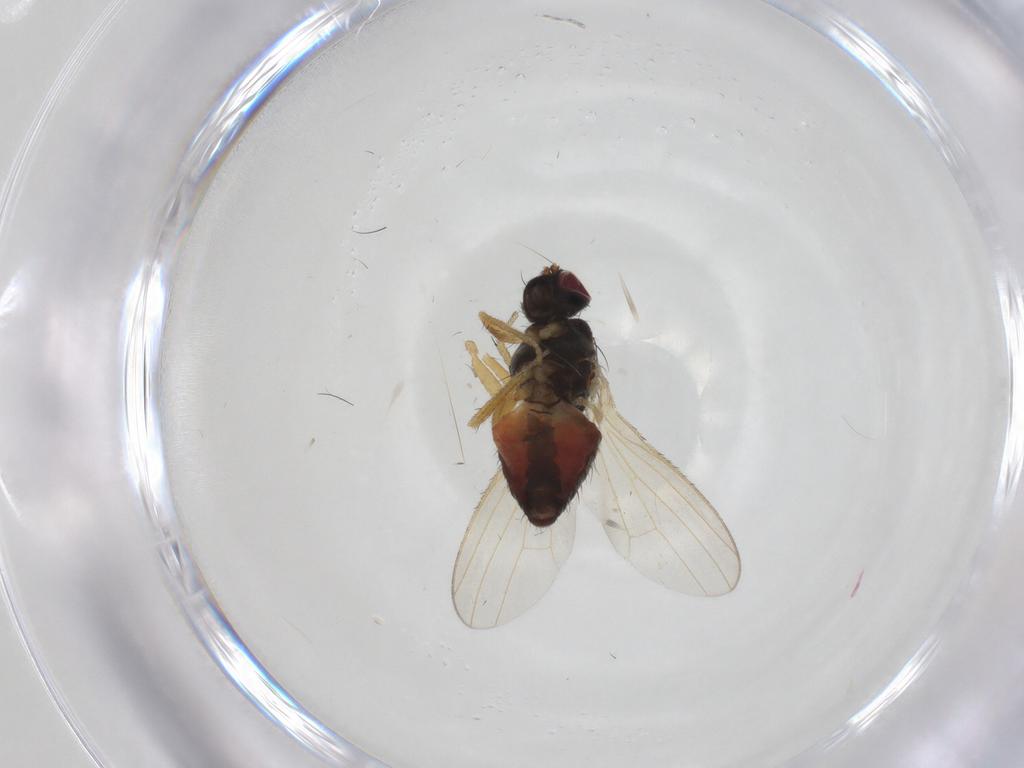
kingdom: Animalia
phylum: Arthropoda
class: Insecta
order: Diptera
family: Heleomyzidae
